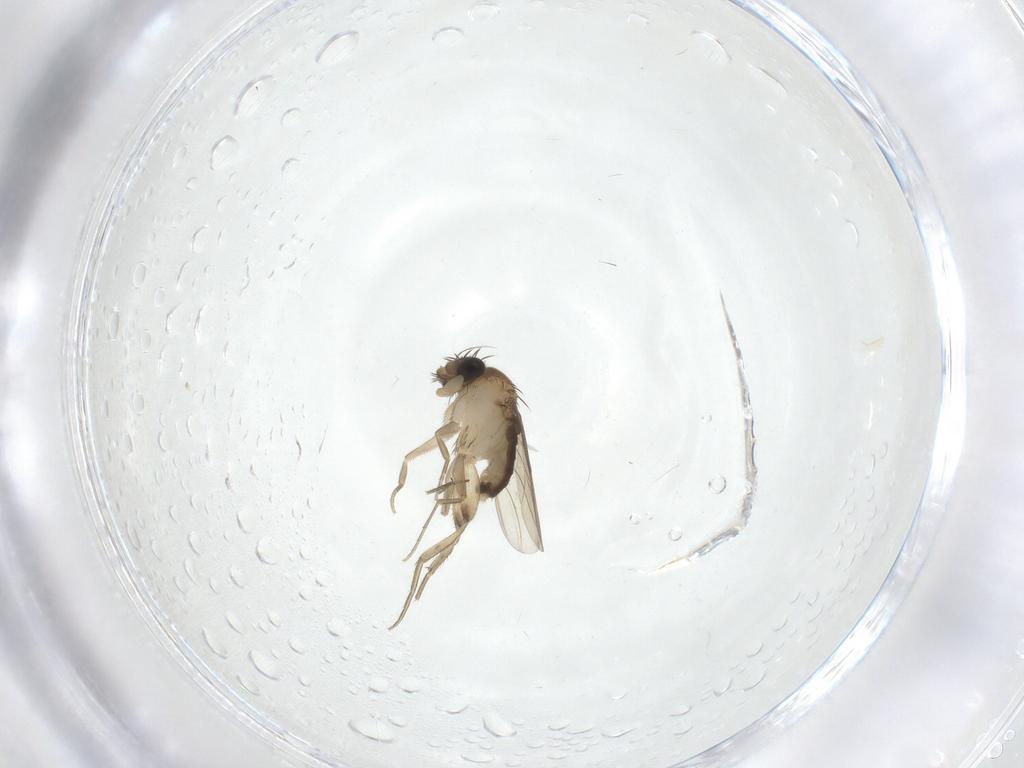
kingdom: Animalia
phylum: Arthropoda
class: Insecta
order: Diptera
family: Phoridae
